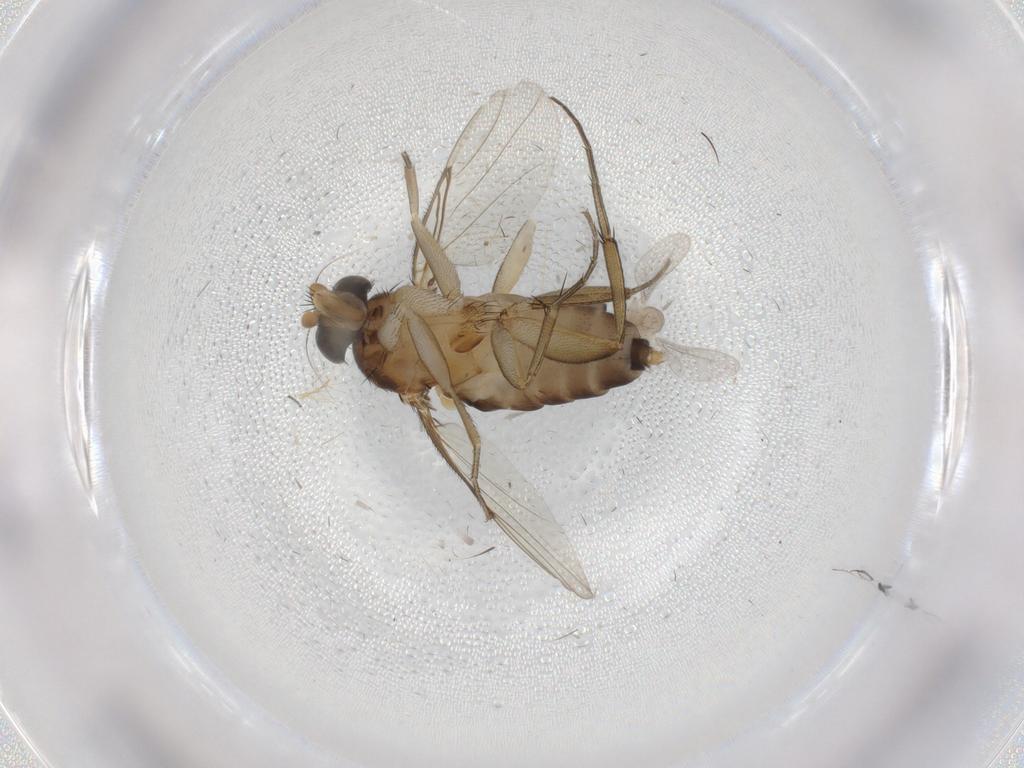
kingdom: Animalia
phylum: Arthropoda
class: Insecta
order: Diptera
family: Phoridae
